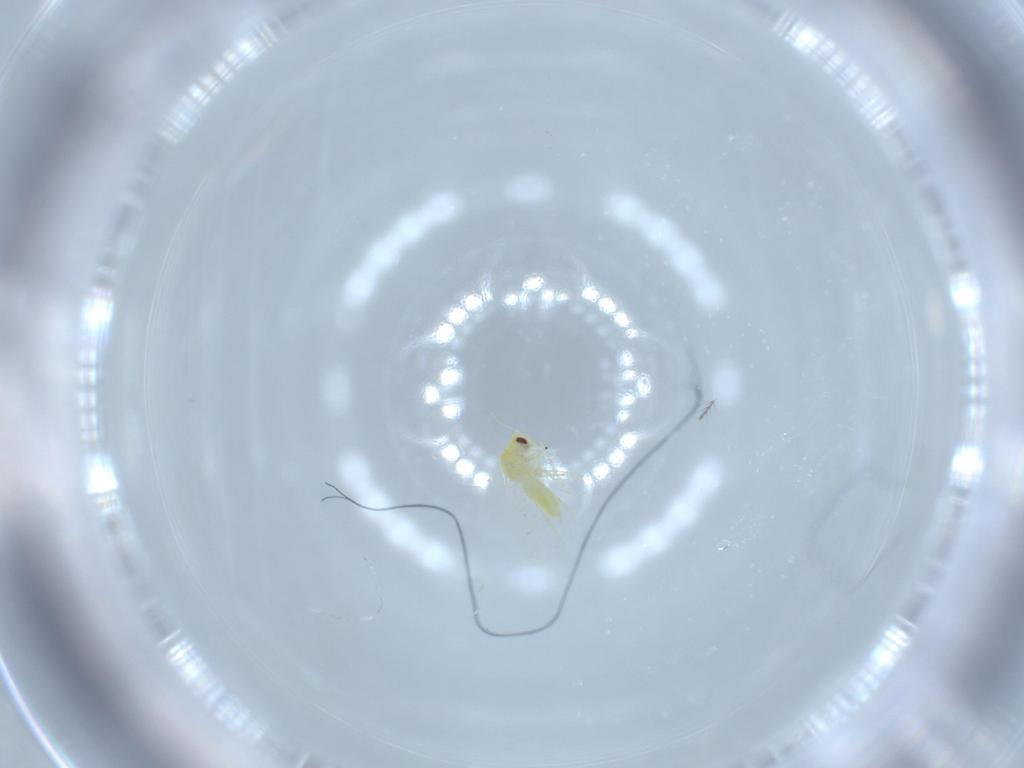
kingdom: Animalia
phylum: Arthropoda
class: Insecta
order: Hemiptera
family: Aleyrodidae
